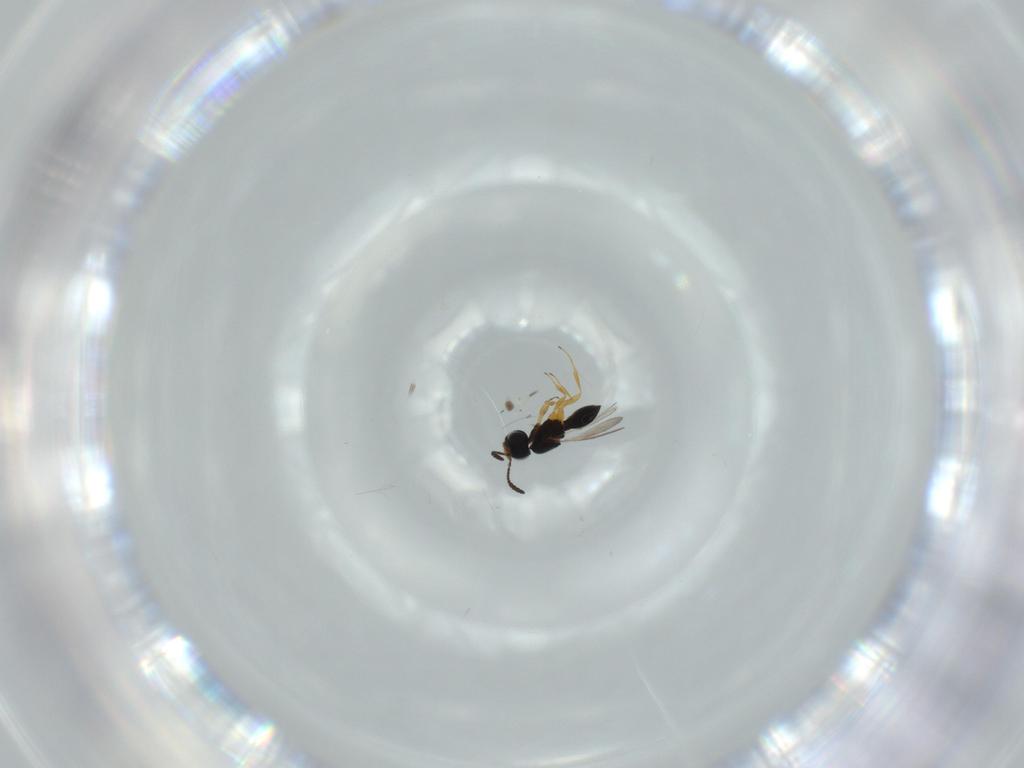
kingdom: Animalia
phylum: Arthropoda
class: Insecta
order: Hymenoptera
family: Scelionidae
